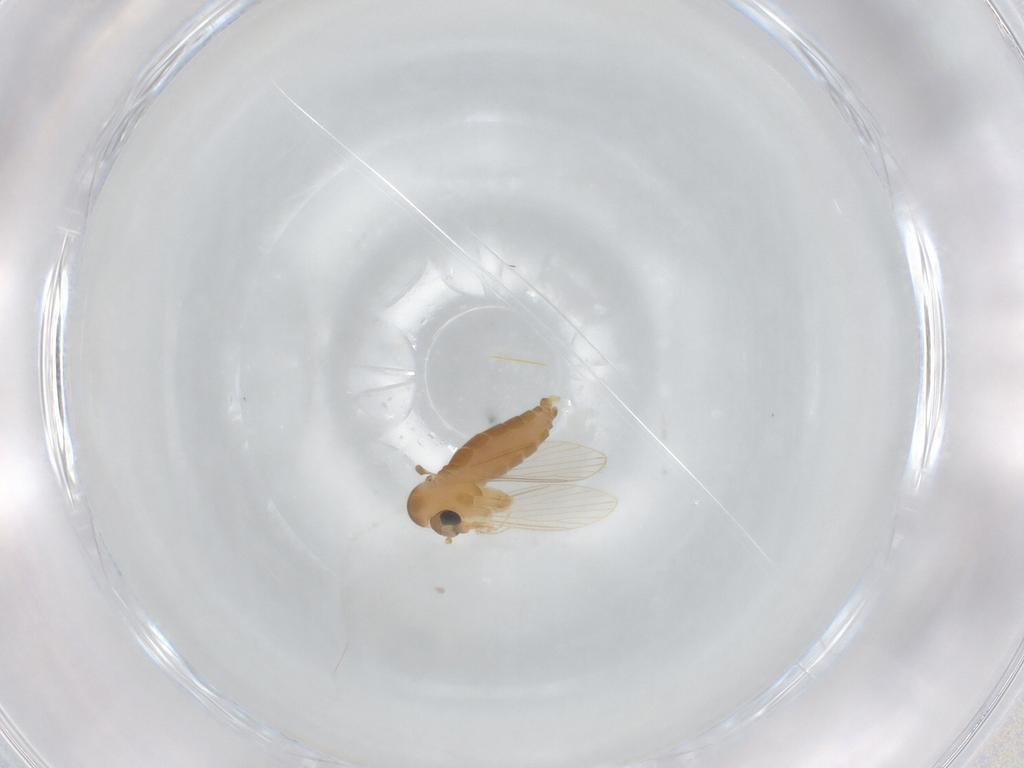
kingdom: Animalia
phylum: Arthropoda
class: Insecta
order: Diptera
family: Psychodidae
